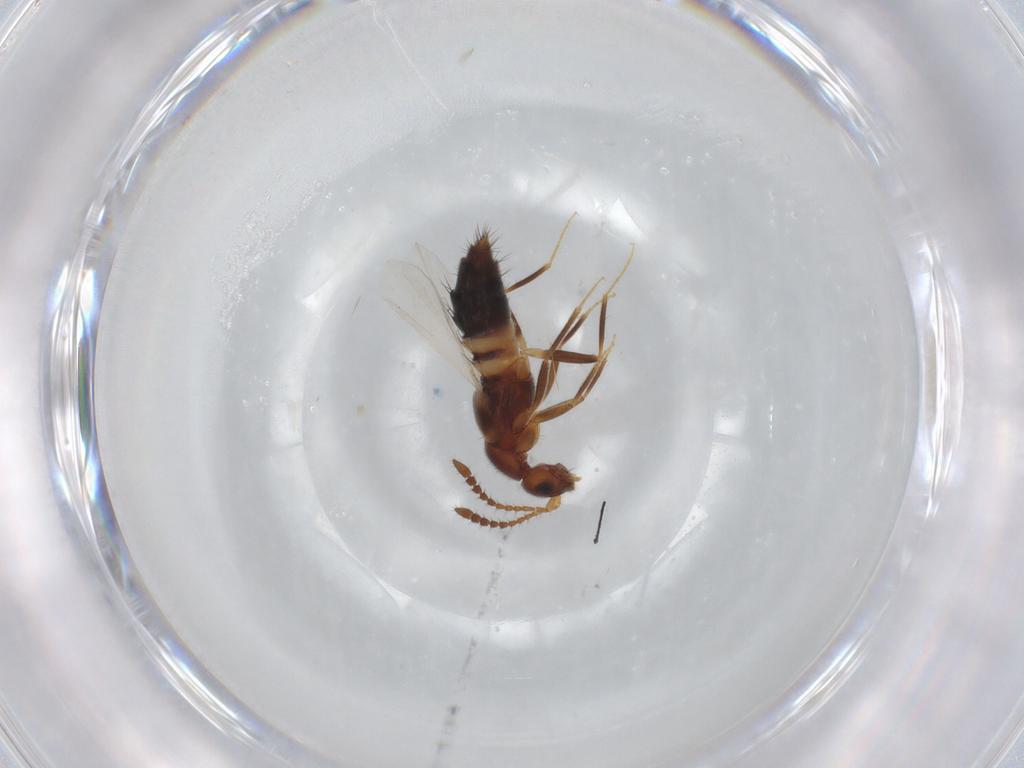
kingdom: Animalia
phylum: Arthropoda
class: Insecta
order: Coleoptera
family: Staphylinidae
